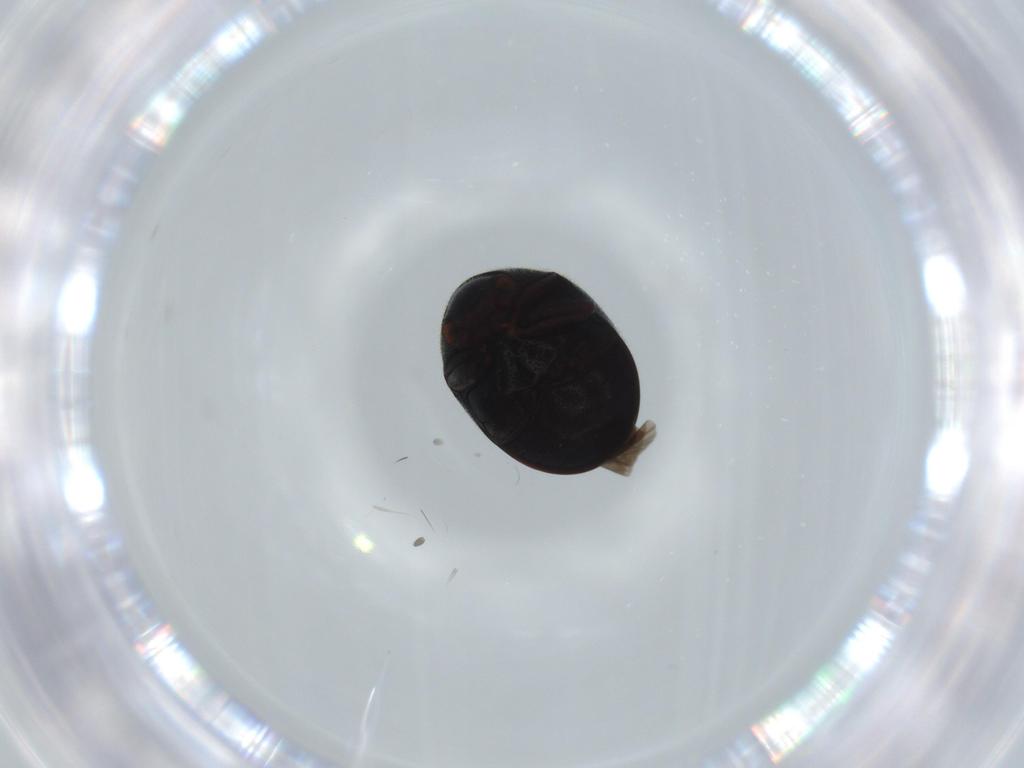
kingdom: Animalia
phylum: Arthropoda
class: Insecta
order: Coleoptera
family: Ptinidae
